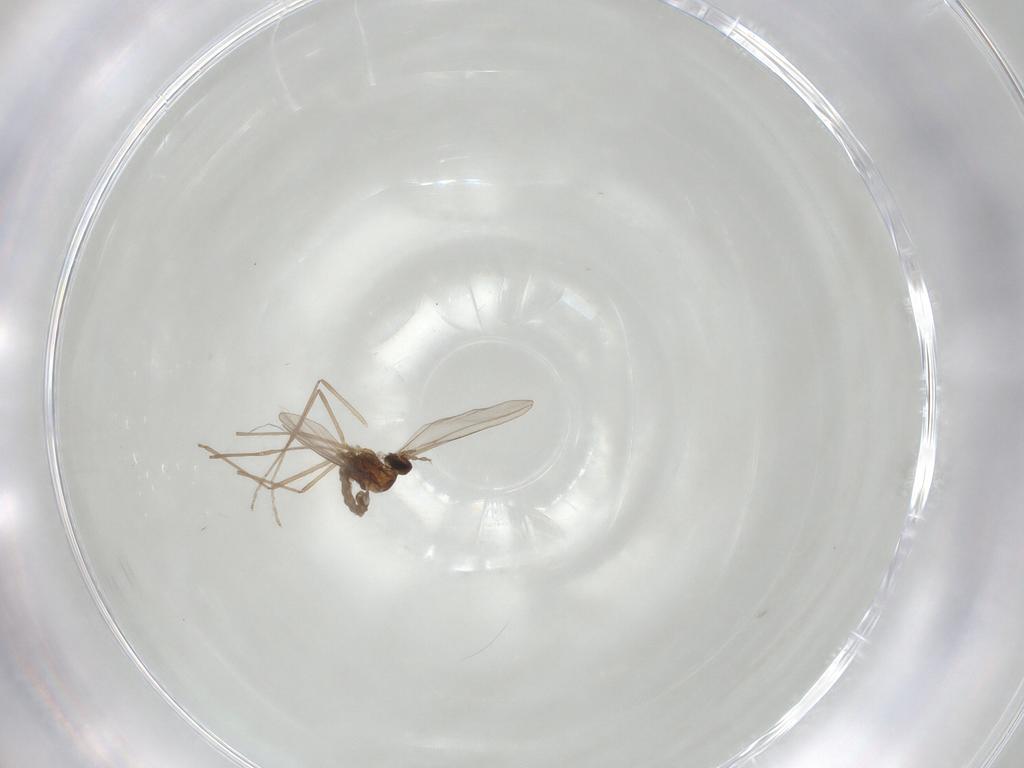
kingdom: Animalia
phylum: Arthropoda
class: Insecta
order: Diptera
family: Cecidomyiidae
